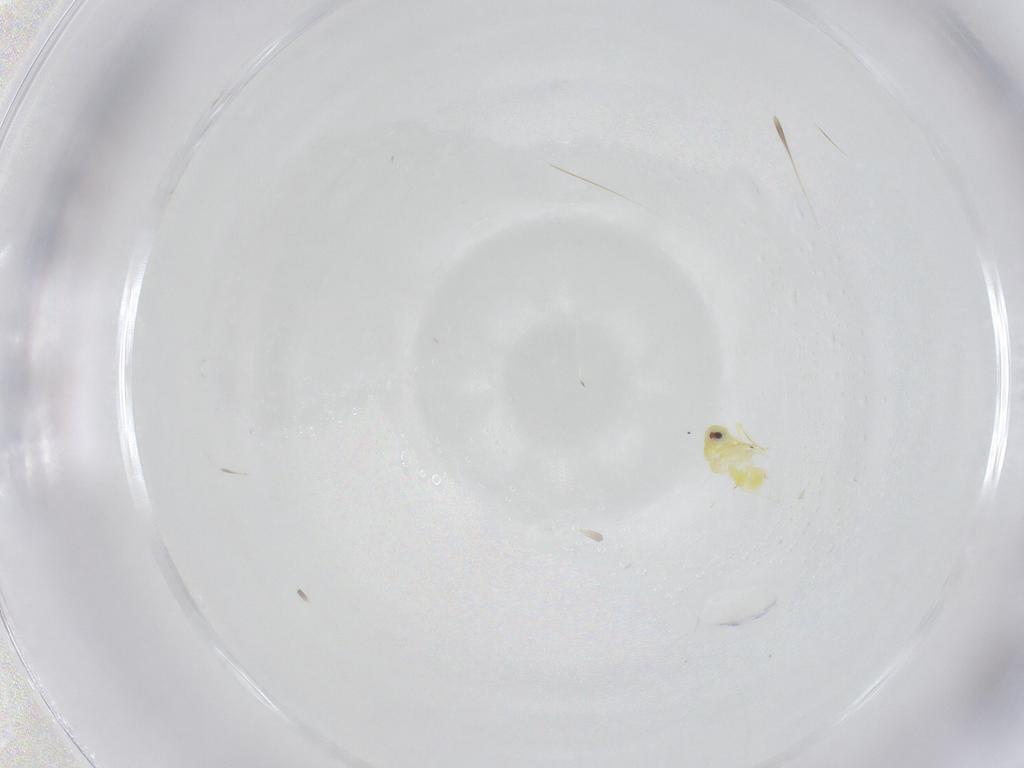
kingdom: Animalia
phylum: Arthropoda
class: Insecta
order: Hemiptera
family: Aleyrodidae
